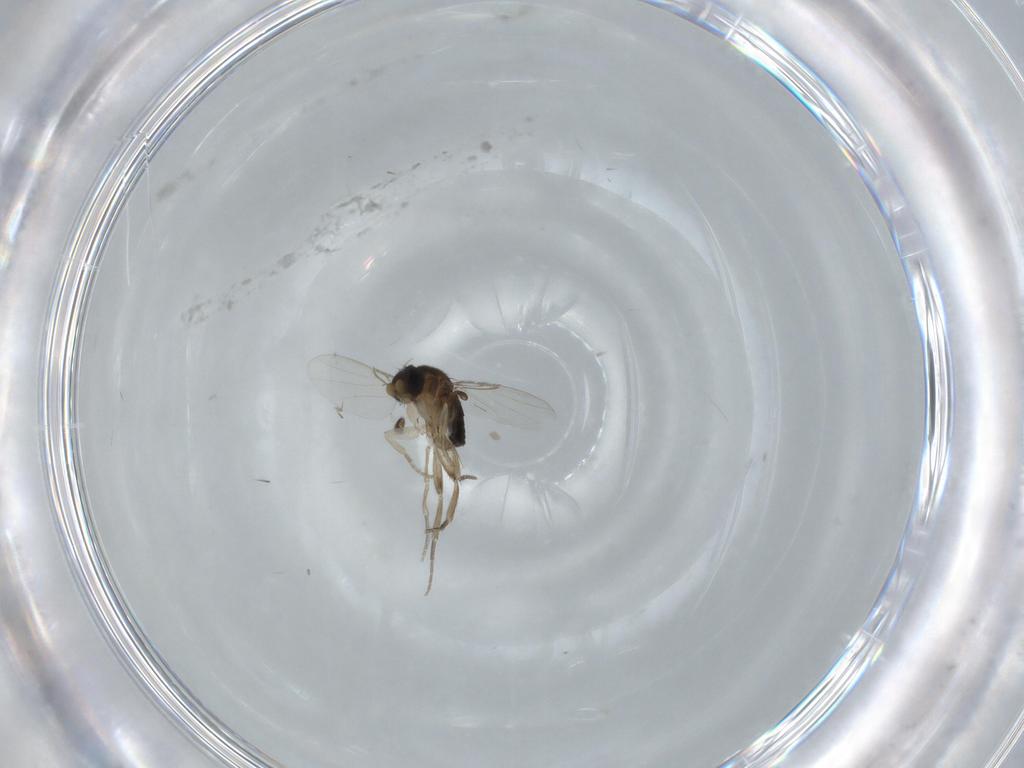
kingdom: Animalia
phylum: Arthropoda
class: Insecta
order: Diptera
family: Phoridae
